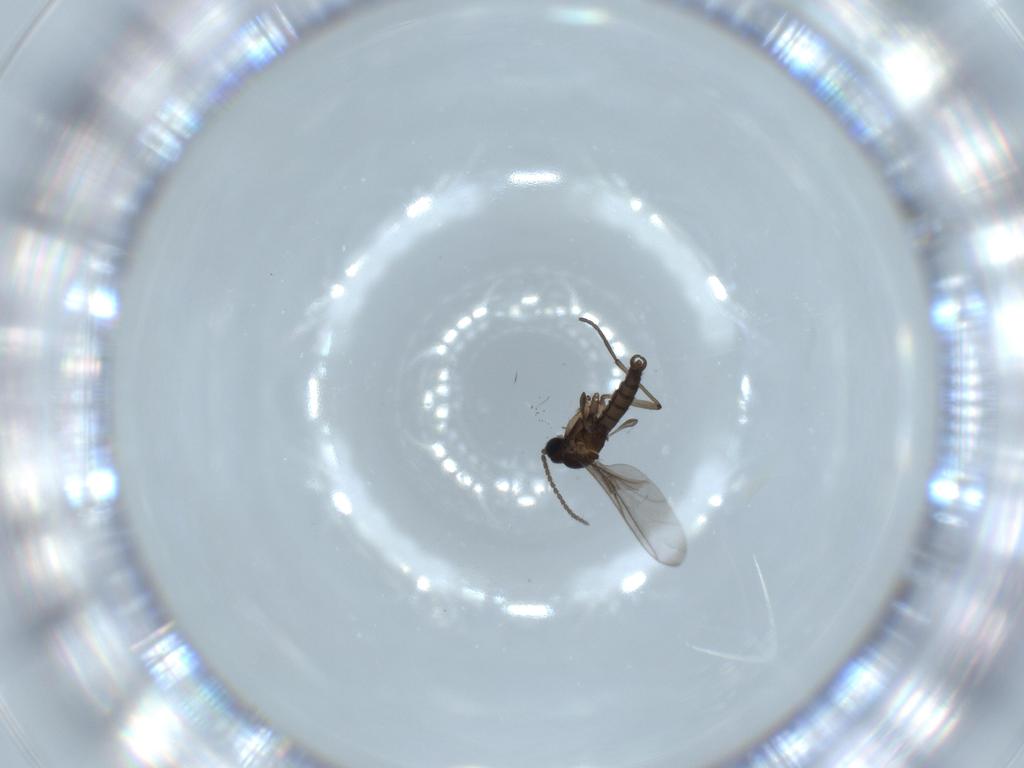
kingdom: Animalia
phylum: Arthropoda
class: Insecta
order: Diptera
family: Sciaridae
